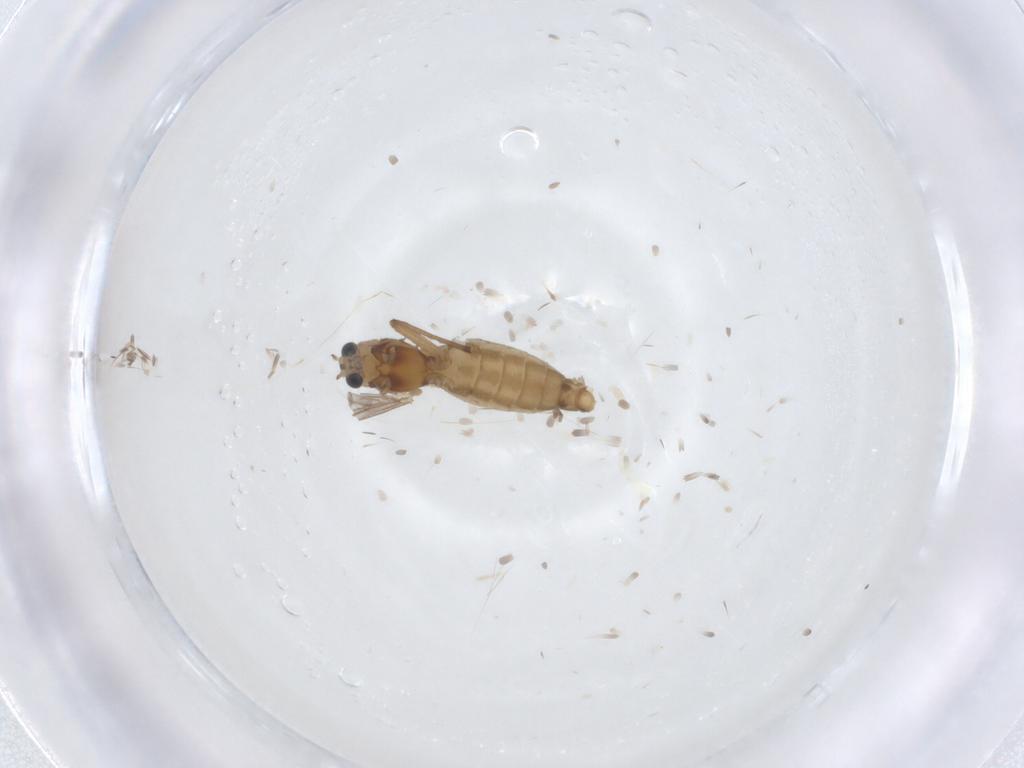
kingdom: Animalia
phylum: Arthropoda
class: Insecta
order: Diptera
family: Chironomidae
